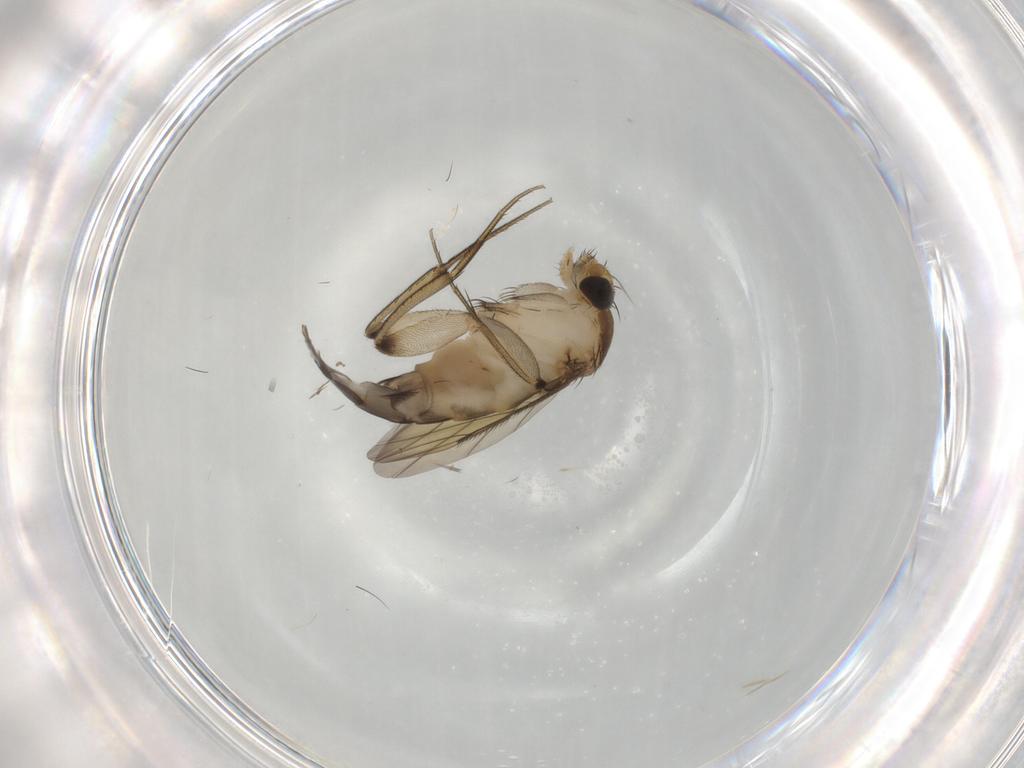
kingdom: Animalia
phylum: Arthropoda
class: Insecta
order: Diptera
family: Phoridae
